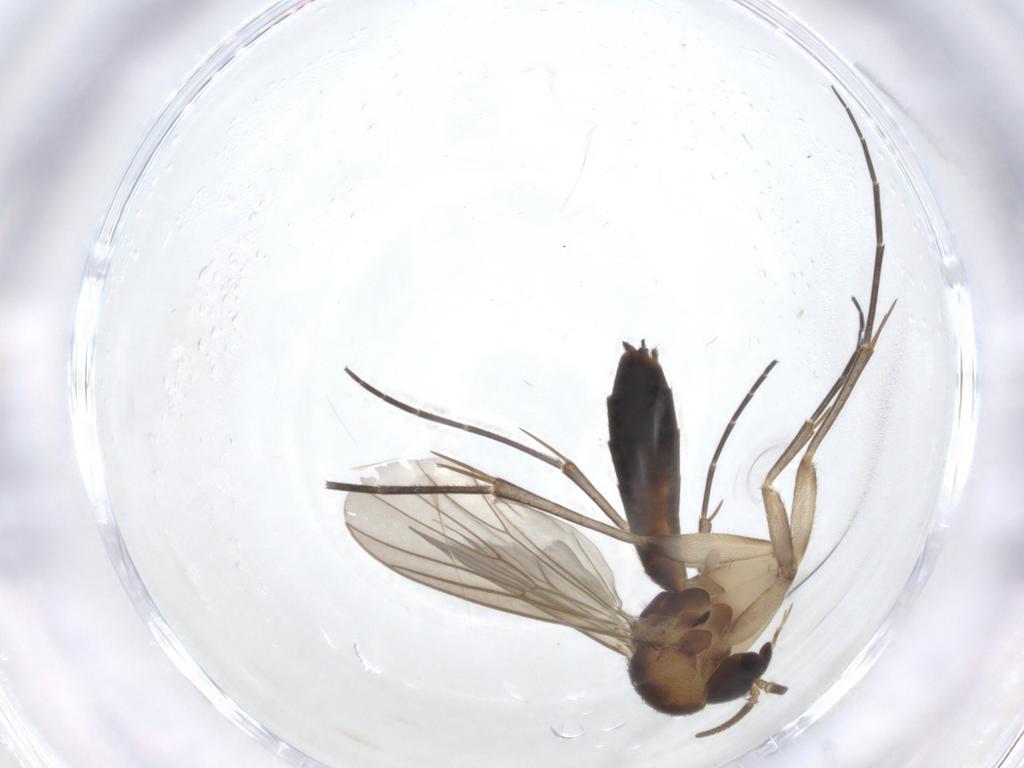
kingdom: Animalia
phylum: Arthropoda
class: Insecta
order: Diptera
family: Mycetophilidae
